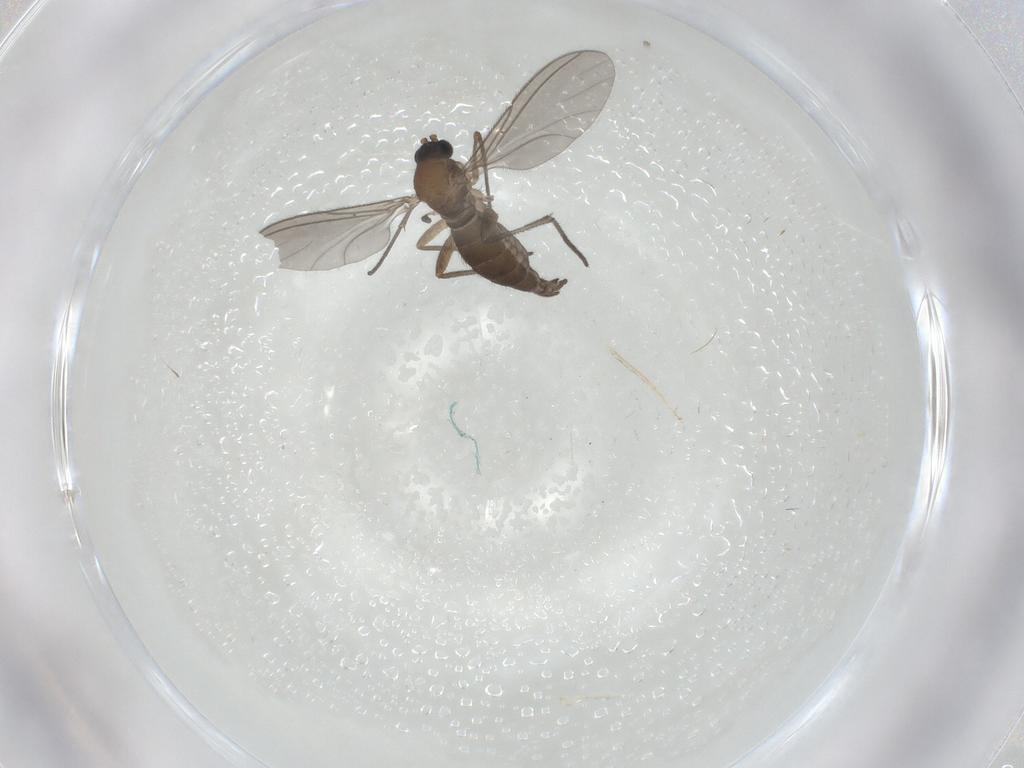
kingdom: Animalia
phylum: Arthropoda
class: Insecta
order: Diptera
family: Sciaridae
